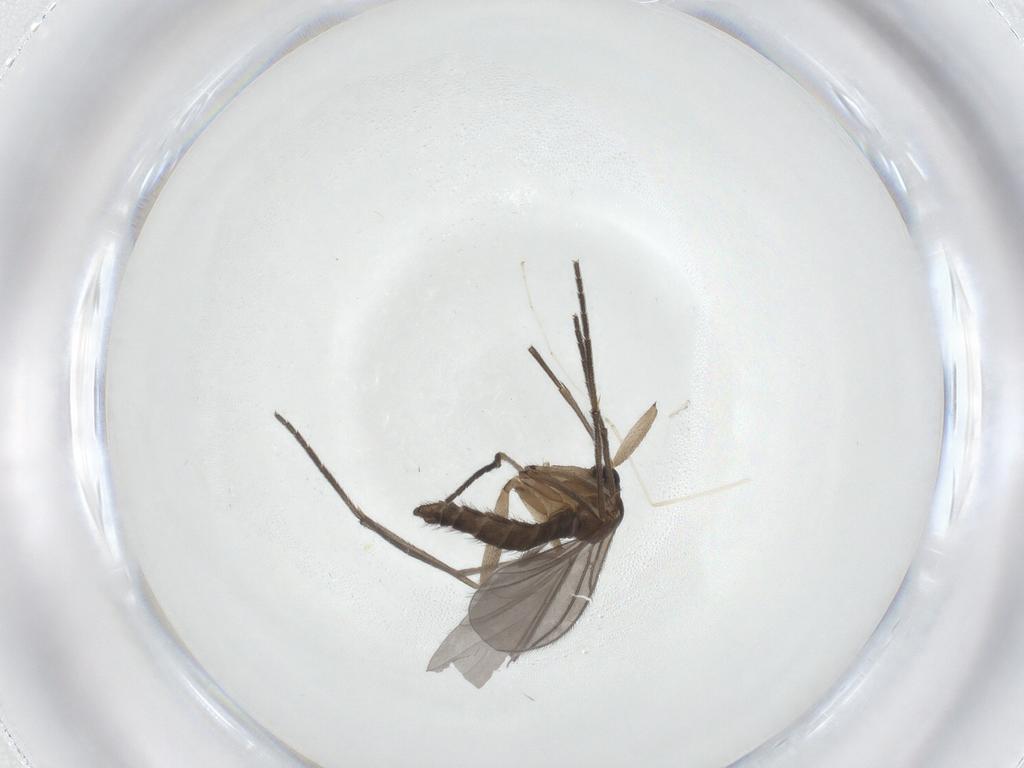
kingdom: Animalia
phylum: Arthropoda
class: Insecta
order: Diptera
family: Sciaridae
